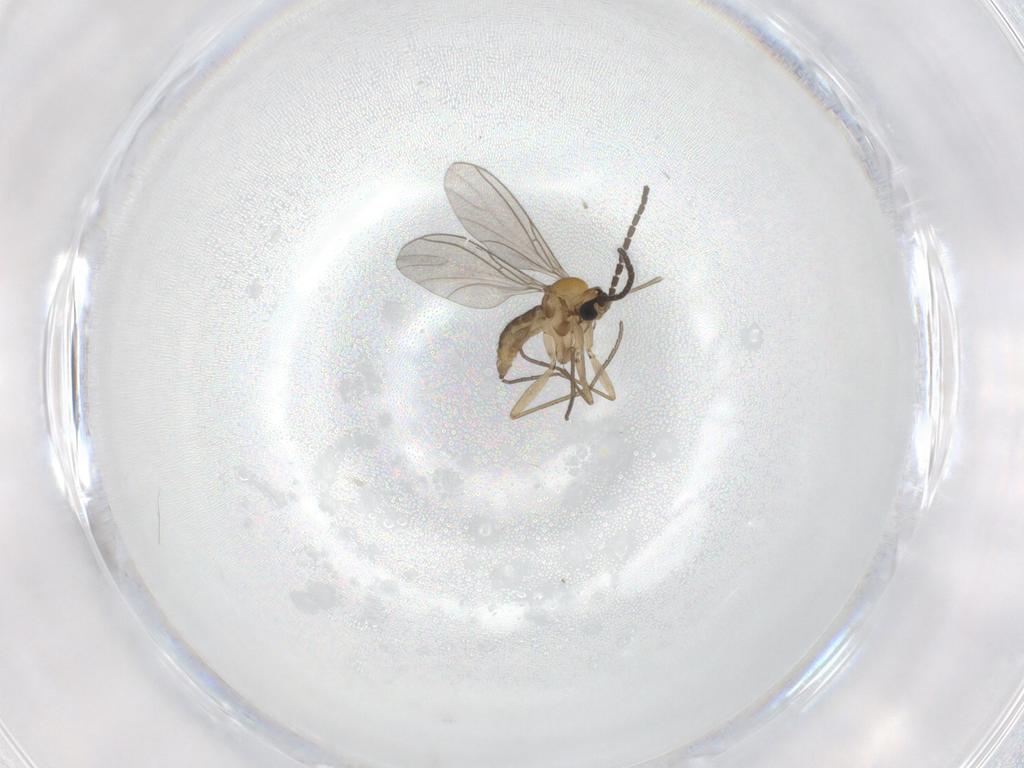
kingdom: Animalia
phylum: Arthropoda
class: Insecta
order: Diptera
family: Sciaridae
